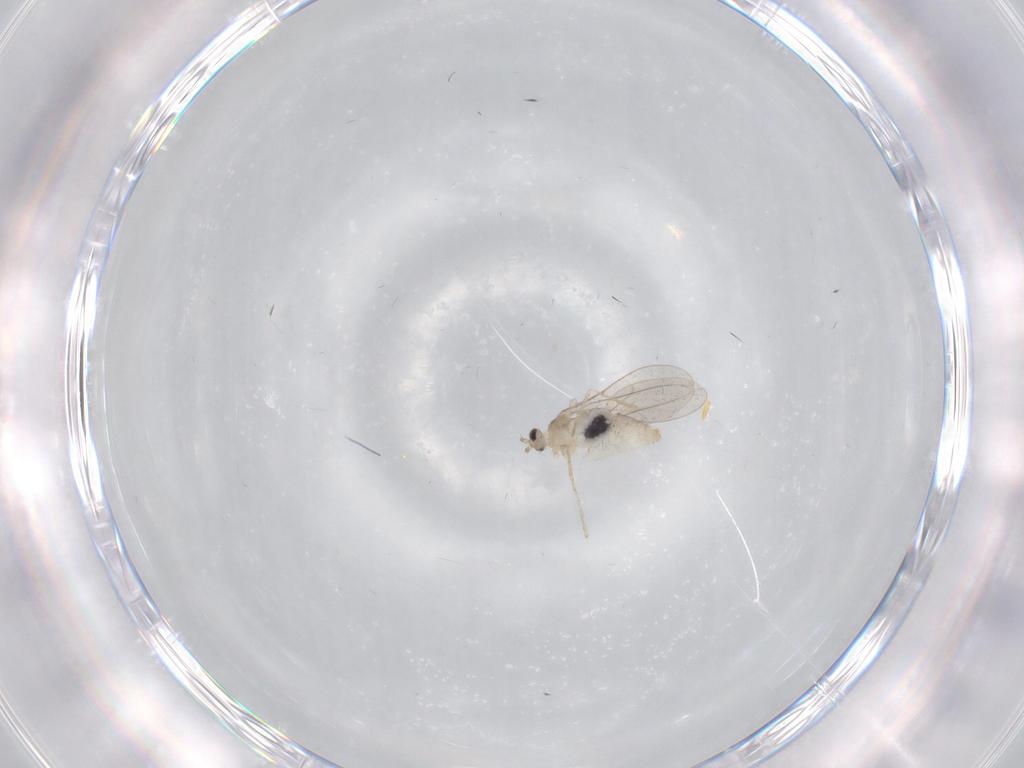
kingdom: Animalia
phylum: Arthropoda
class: Insecta
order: Diptera
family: Cecidomyiidae
